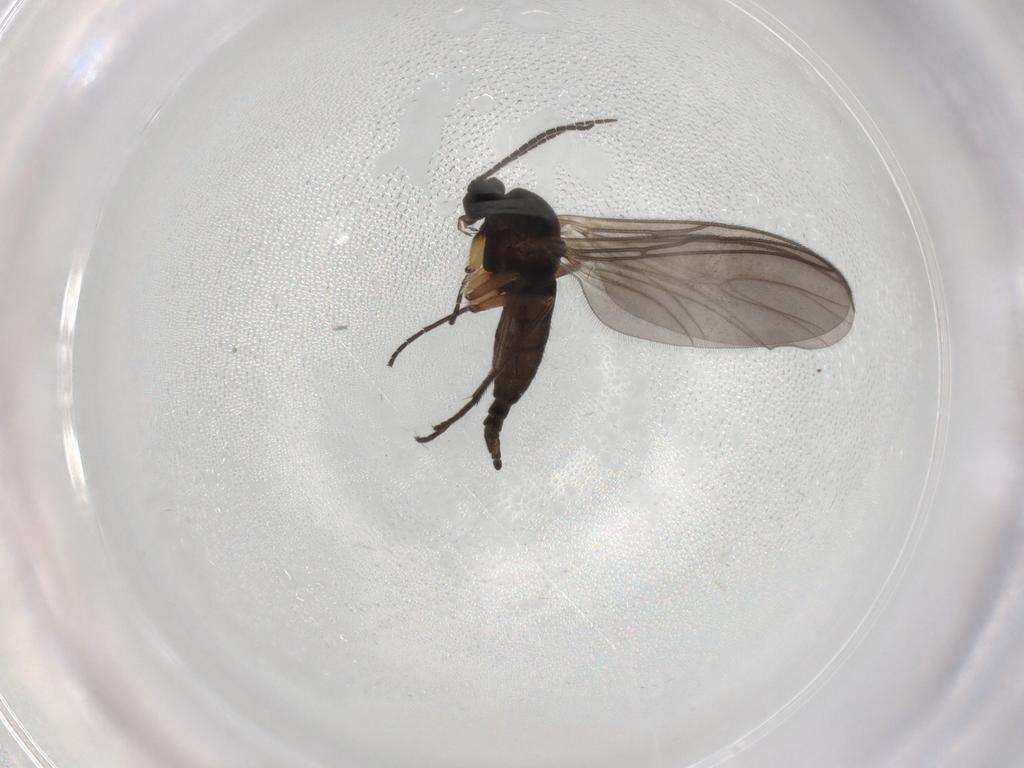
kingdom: Animalia
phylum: Arthropoda
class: Insecta
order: Diptera
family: Sciaridae
